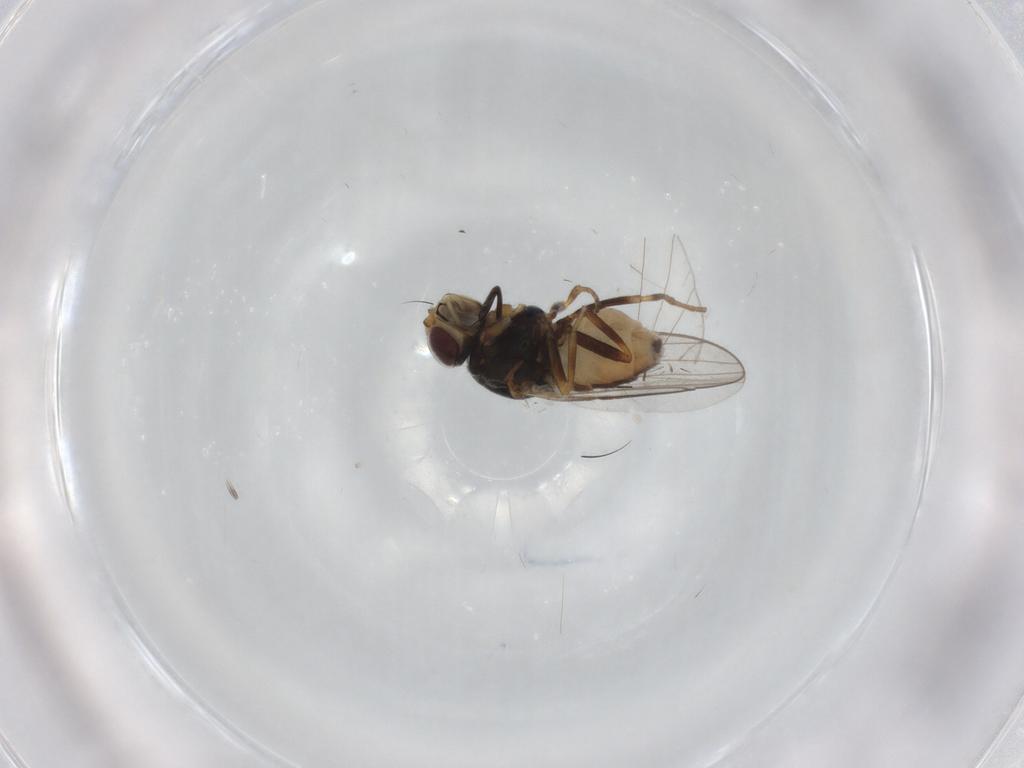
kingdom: Animalia
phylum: Arthropoda
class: Insecta
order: Diptera
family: Chloropidae
